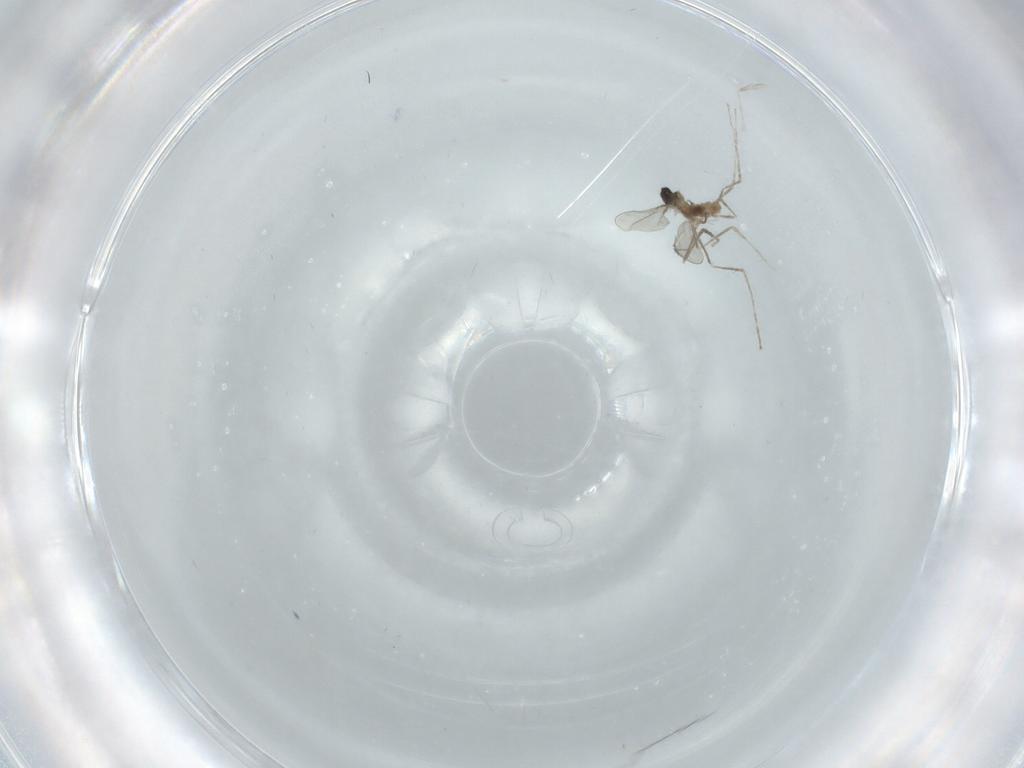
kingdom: Animalia
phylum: Arthropoda
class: Insecta
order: Diptera
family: Cecidomyiidae
